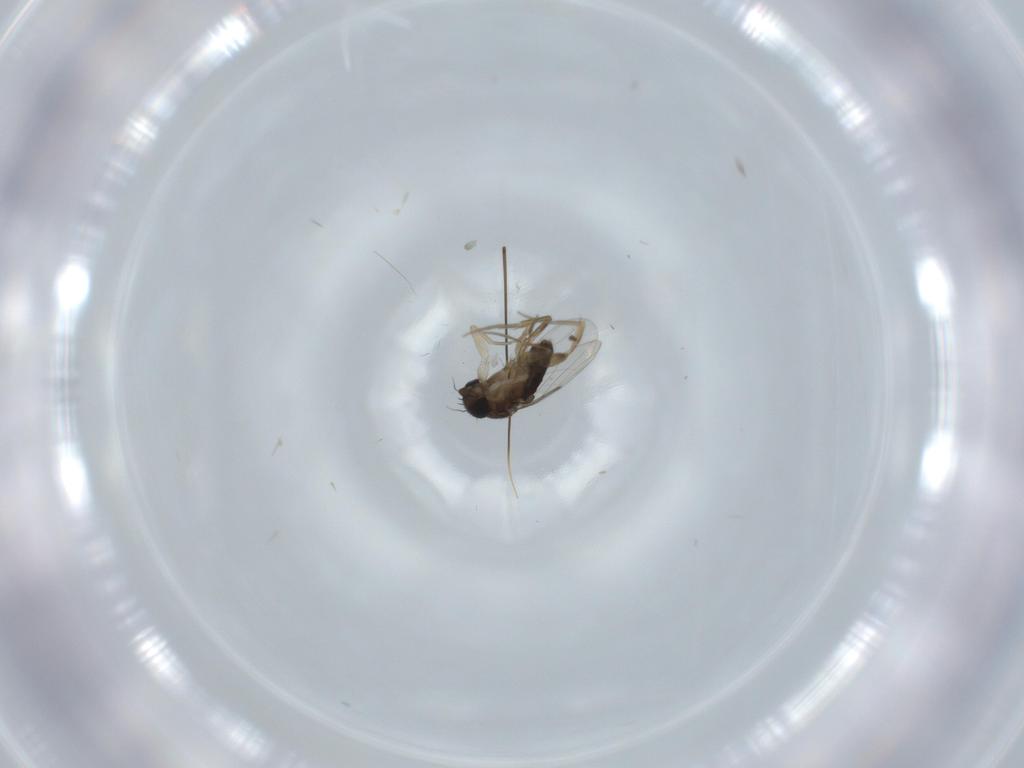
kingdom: Animalia
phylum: Arthropoda
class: Insecta
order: Diptera
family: Phoridae
